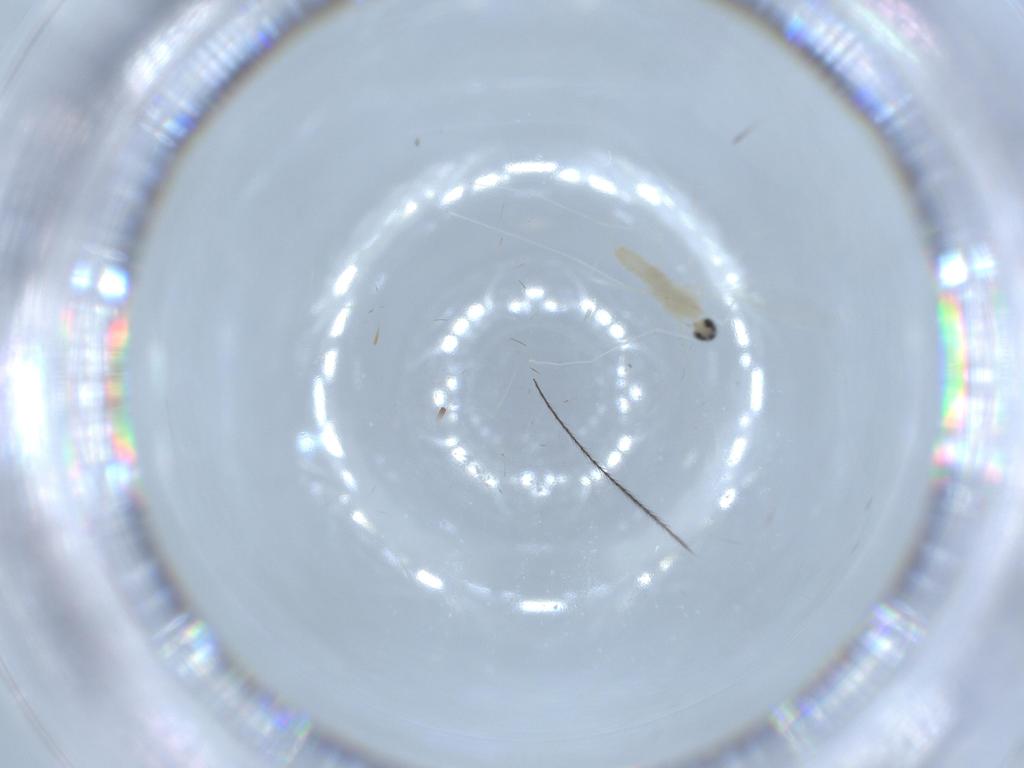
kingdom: Animalia
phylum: Arthropoda
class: Insecta
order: Diptera
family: Cecidomyiidae
